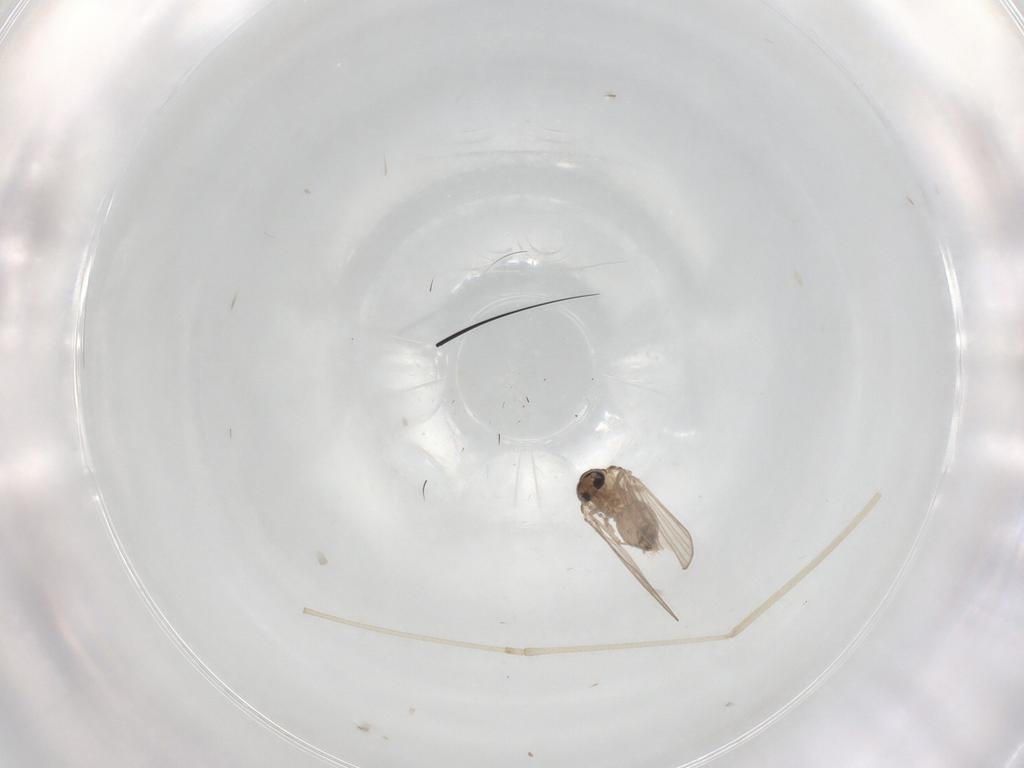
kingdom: Animalia
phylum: Arthropoda
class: Insecta
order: Diptera
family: Psychodidae
